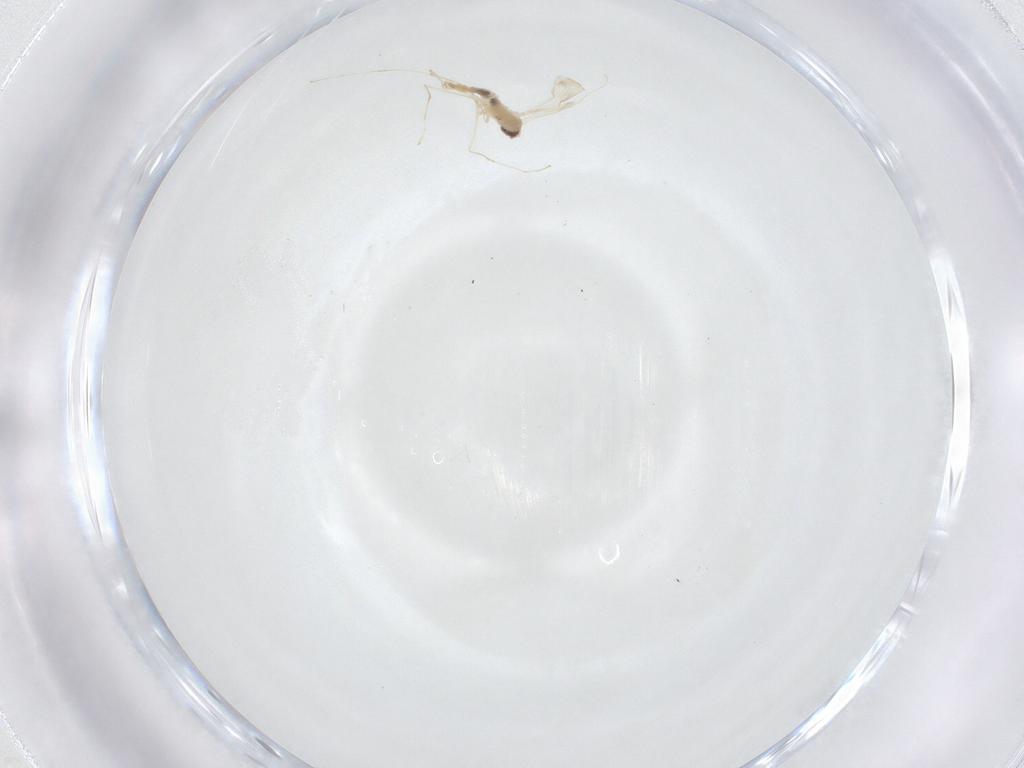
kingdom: Animalia
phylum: Arthropoda
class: Insecta
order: Diptera
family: Cecidomyiidae
